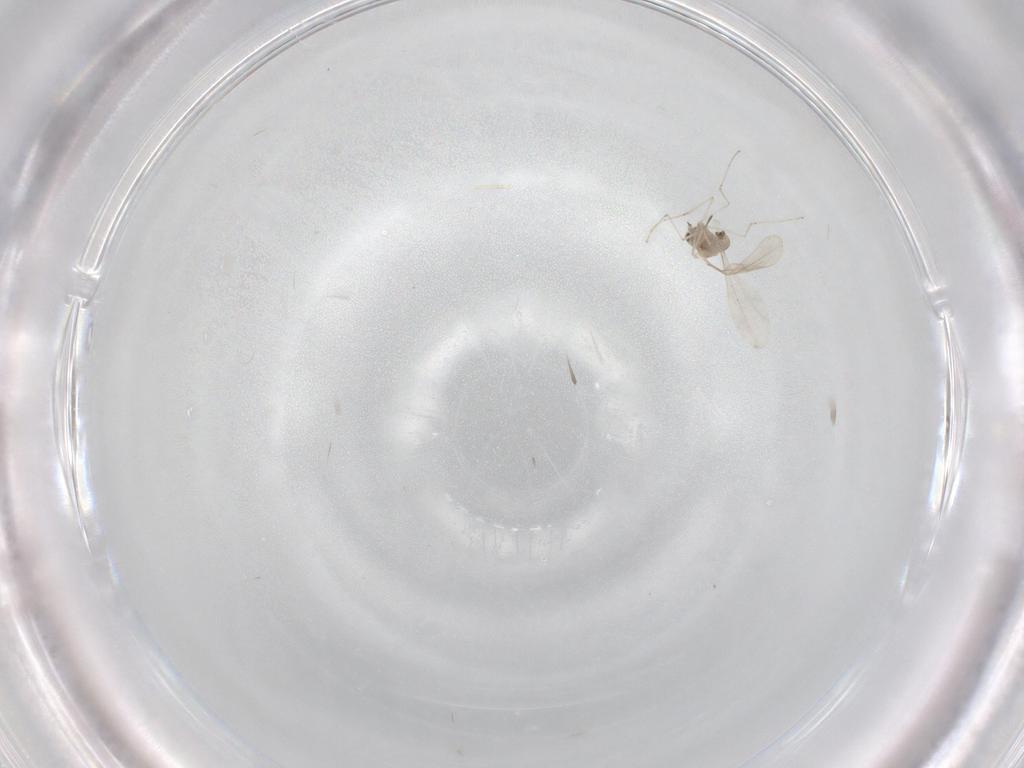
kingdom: Animalia
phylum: Arthropoda
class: Insecta
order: Diptera
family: Cecidomyiidae
